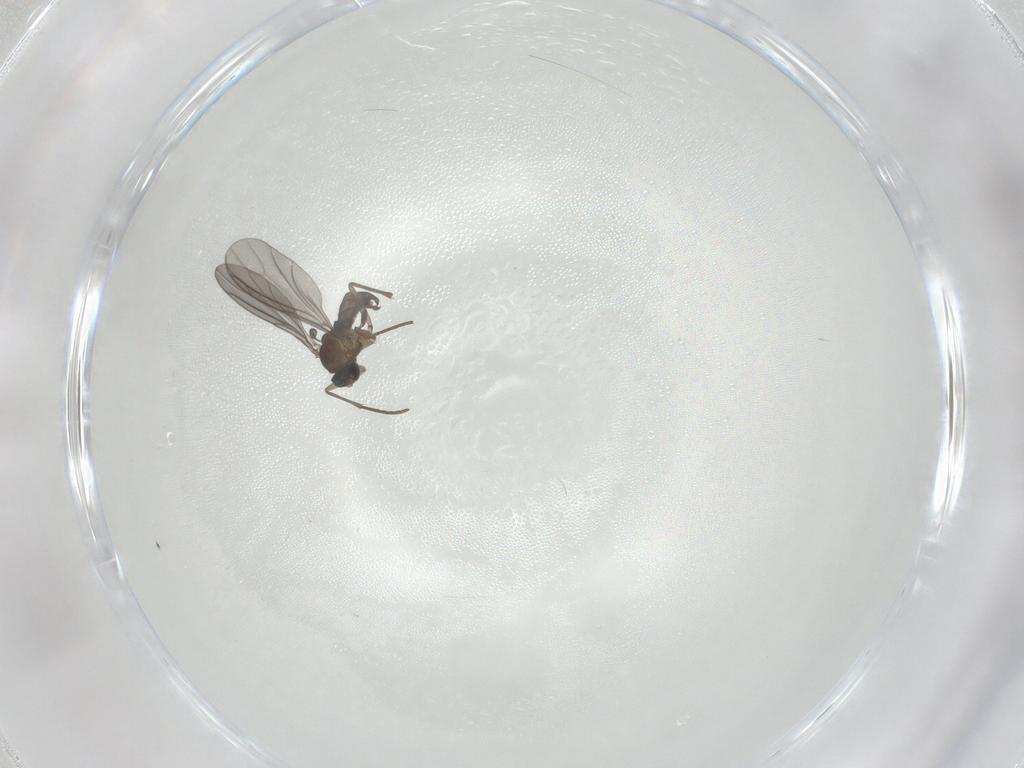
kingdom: Animalia
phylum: Arthropoda
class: Insecta
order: Diptera
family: Sciaridae
